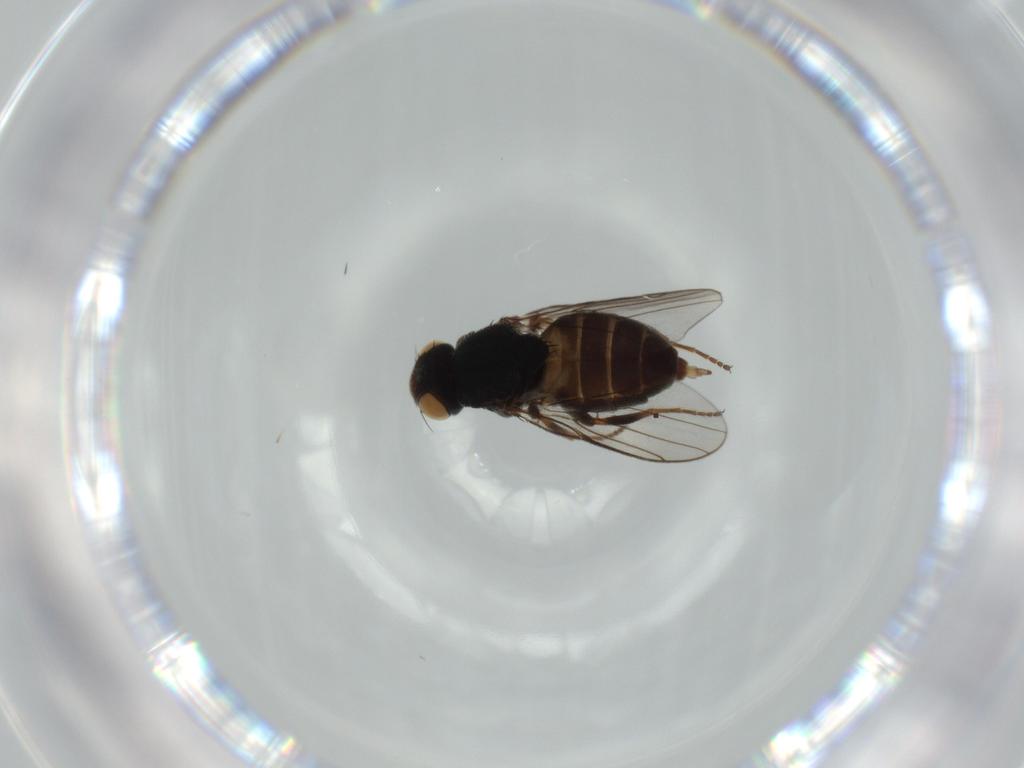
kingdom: Animalia
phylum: Arthropoda
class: Insecta
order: Diptera
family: Chloropidae
